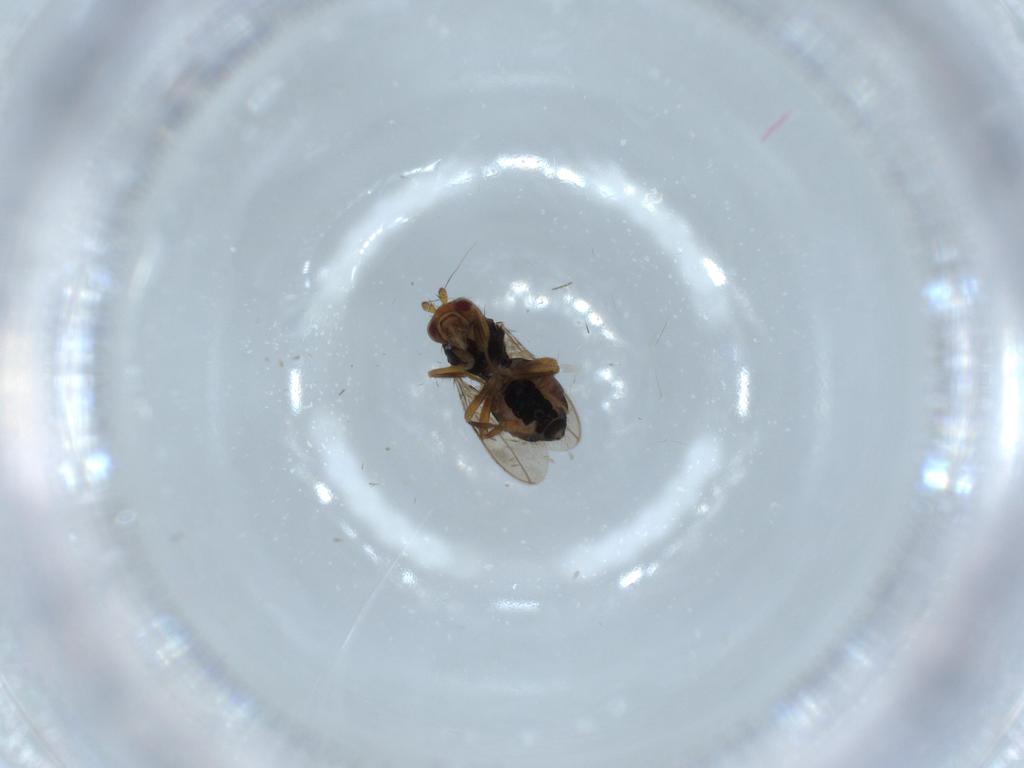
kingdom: Animalia
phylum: Arthropoda
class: Insecta
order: Diptera
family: Sphaeroceridae
